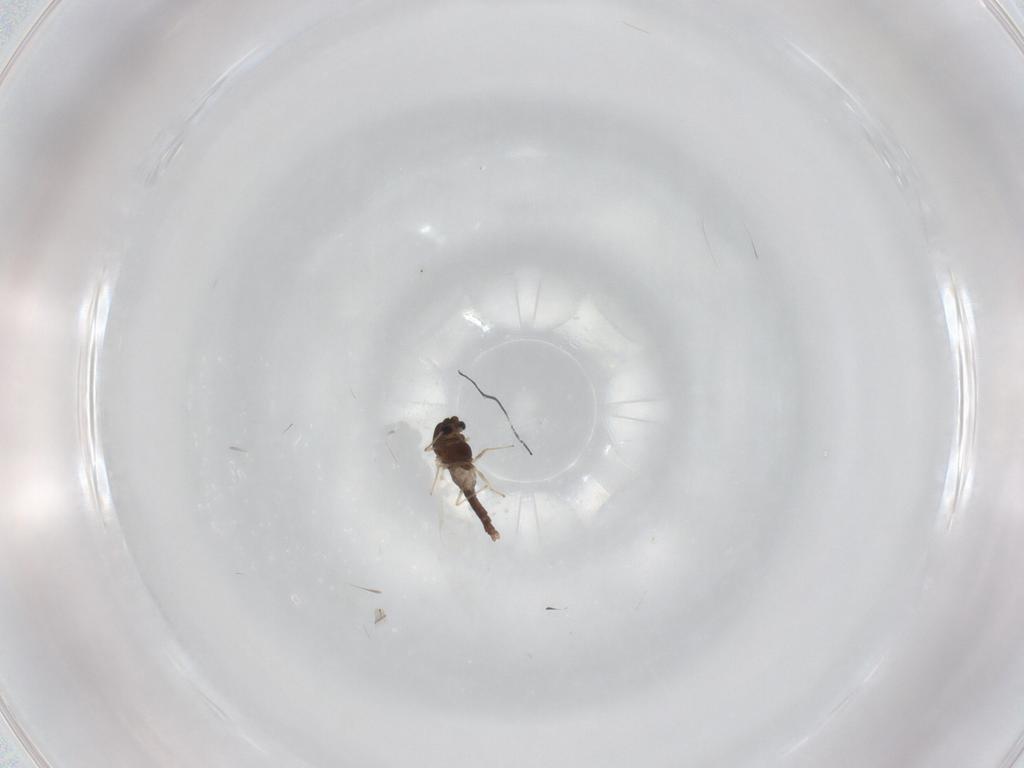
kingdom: Animalia
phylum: Arthropoda
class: Insecta
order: Diptera
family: Chironomidae
